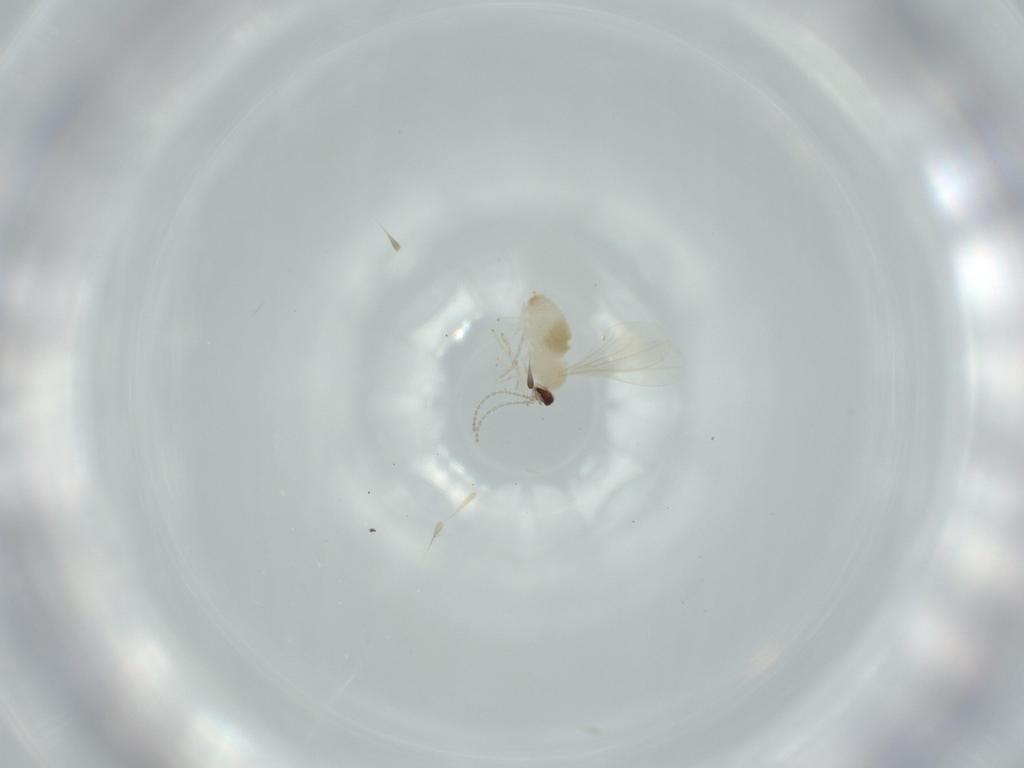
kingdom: Animalia
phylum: Arthropoda
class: Insecta
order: Diptera
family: Cecidomyiidae
